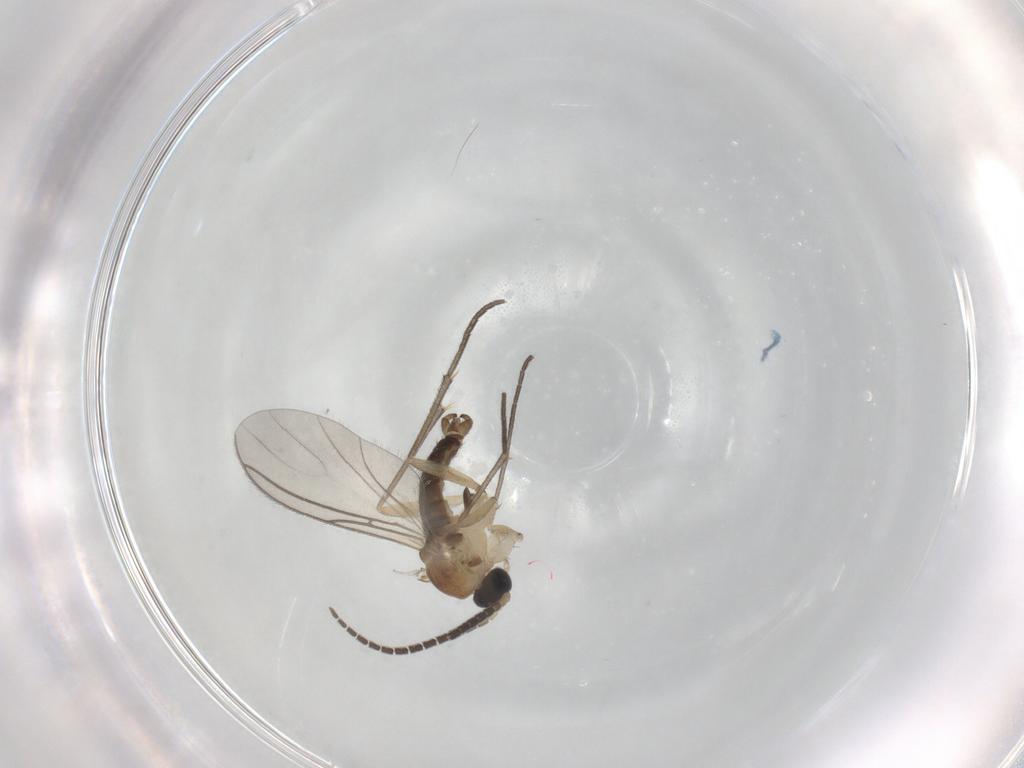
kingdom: Animalia
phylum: Arthropoda
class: Insecta
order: Diptera
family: Sciaridae
